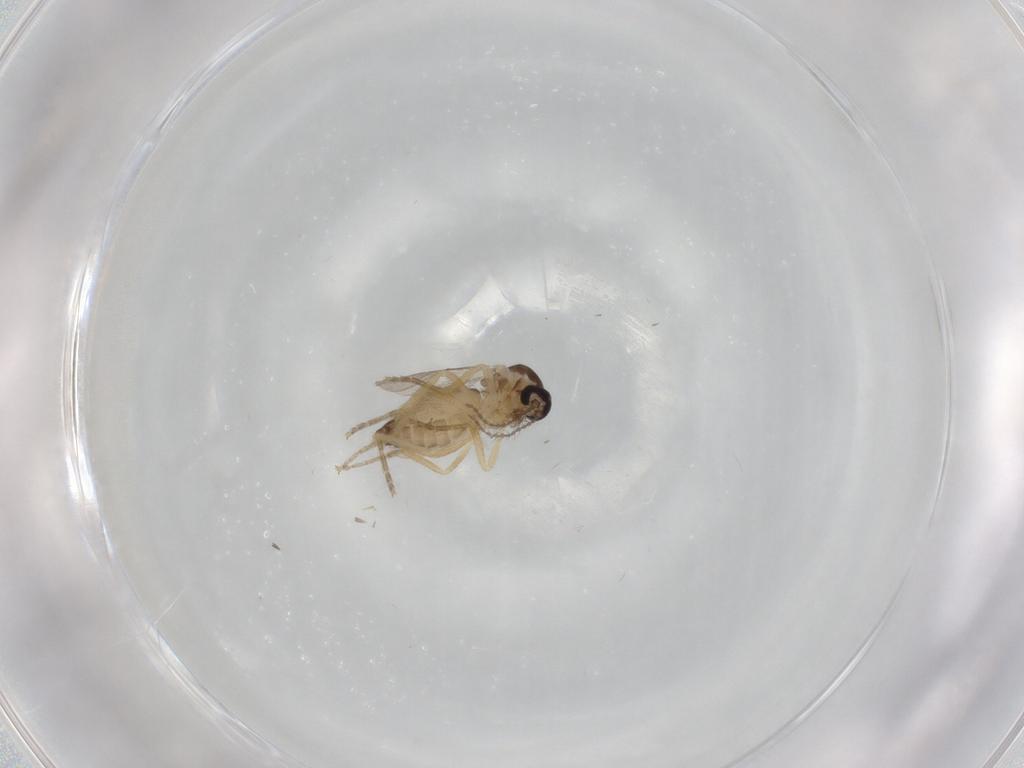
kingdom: Animalia
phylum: Arthropoda
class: Insecta
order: Diptera
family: Ceratopogonidae
